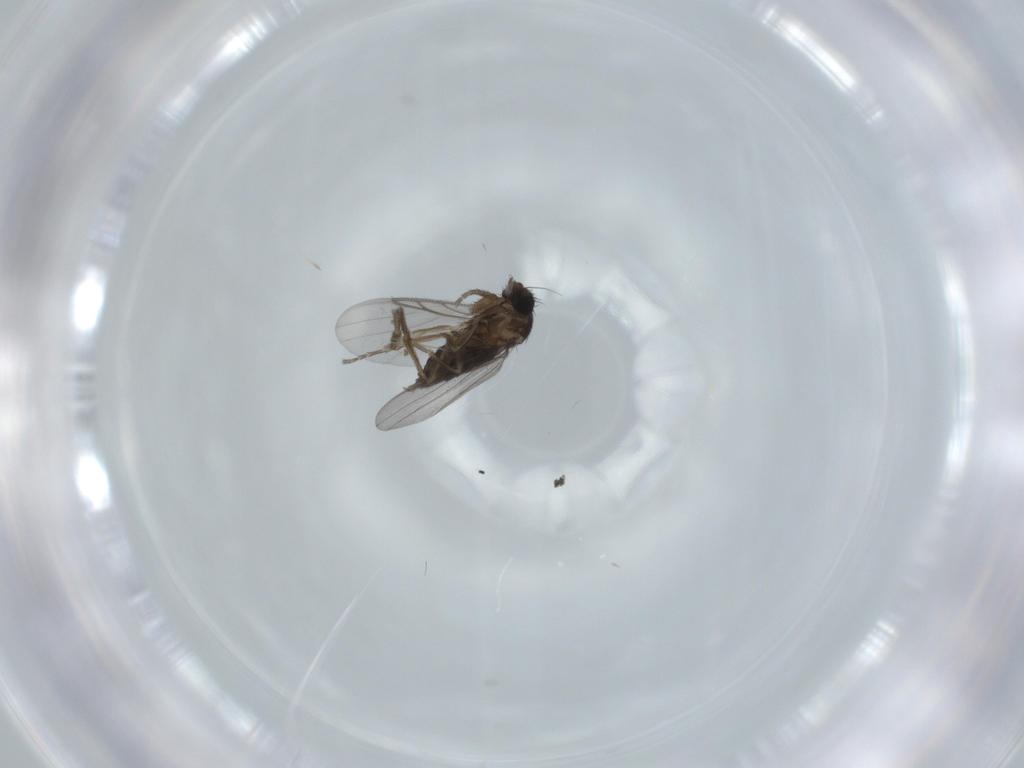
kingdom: Animalia
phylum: Arthropoda
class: Insecta
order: Diptera
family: Phoridae
